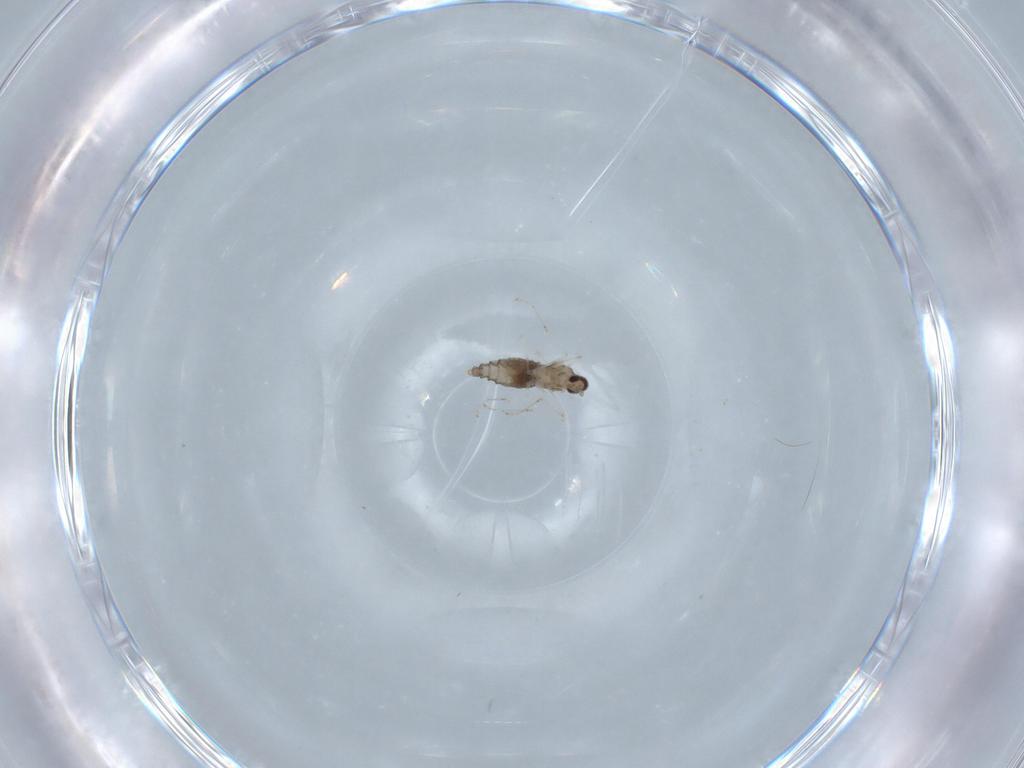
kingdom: Animalia
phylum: Arthropoda
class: Insecta
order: Diptera
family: Cecidomyiidae
